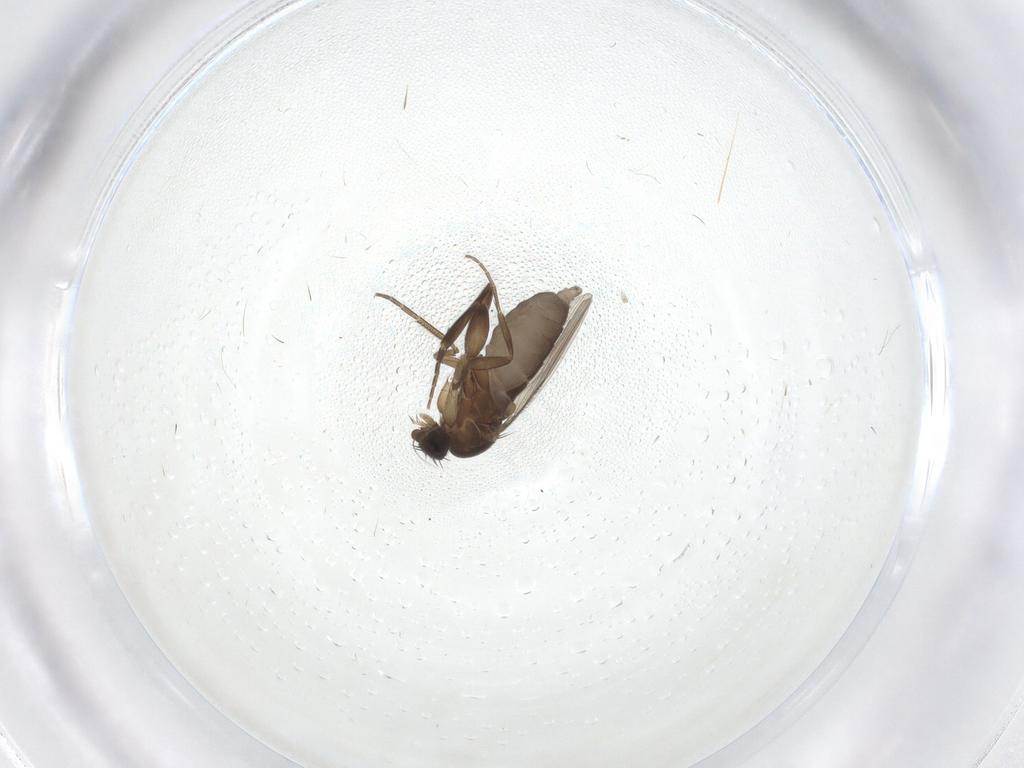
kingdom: Animalia
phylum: Arthropoda
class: Insecta
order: Diptera
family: Phoridae
